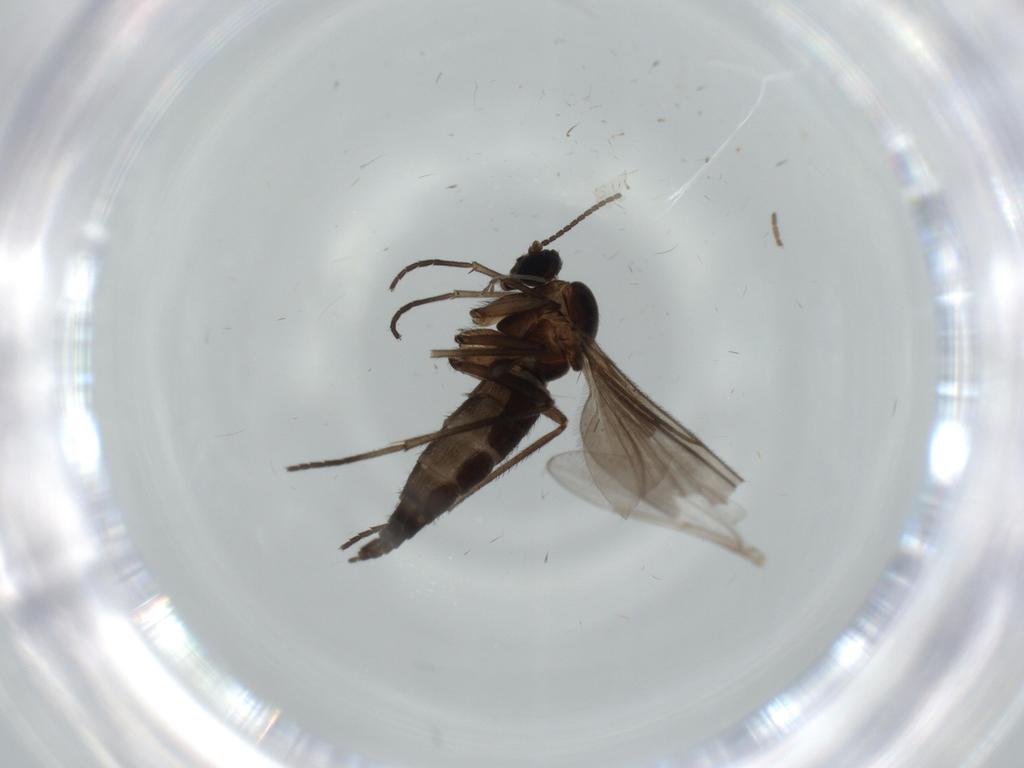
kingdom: Animalia
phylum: Arthropoda
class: Insecta
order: Diptera
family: Sciaridae
